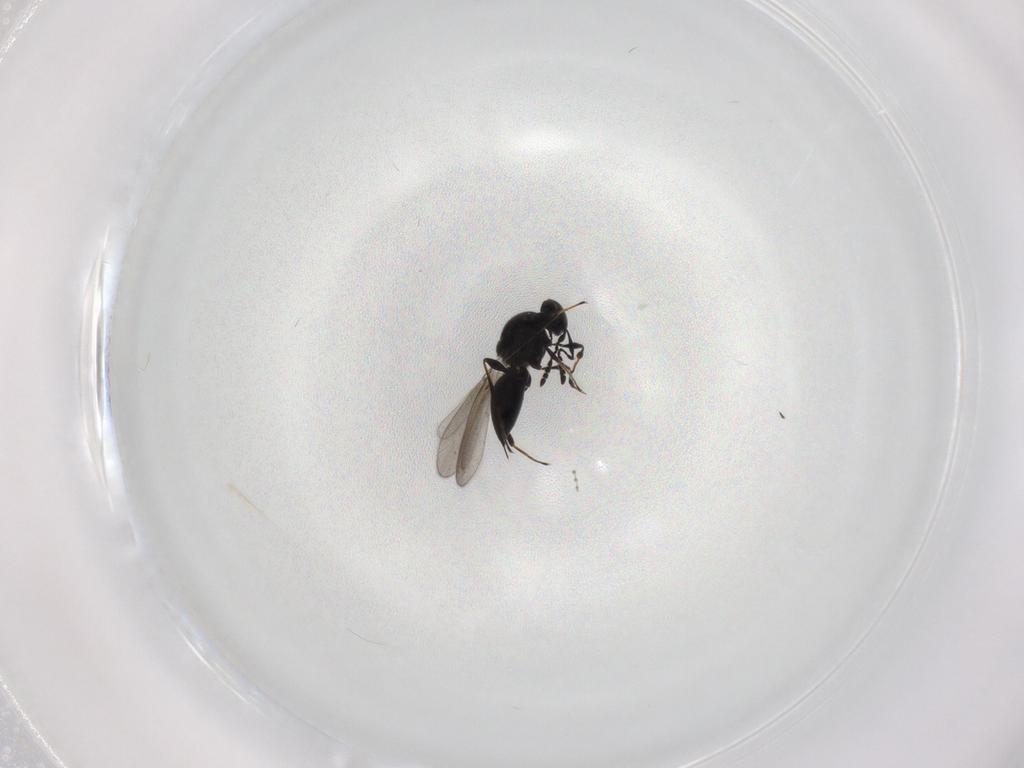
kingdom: Animalia
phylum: Arthropoda
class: Insecta
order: Hymenoptera
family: Platygastridae
